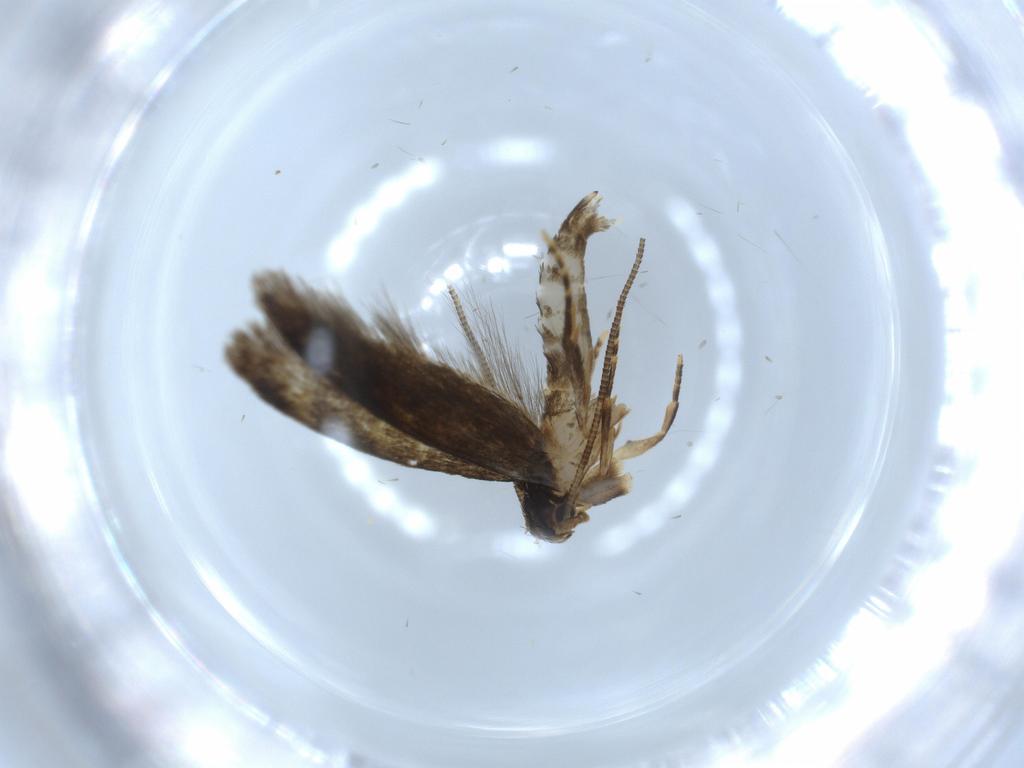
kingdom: Animalia
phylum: Arthropoda
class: Insecta
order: Lepidoptera
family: Tineidae
